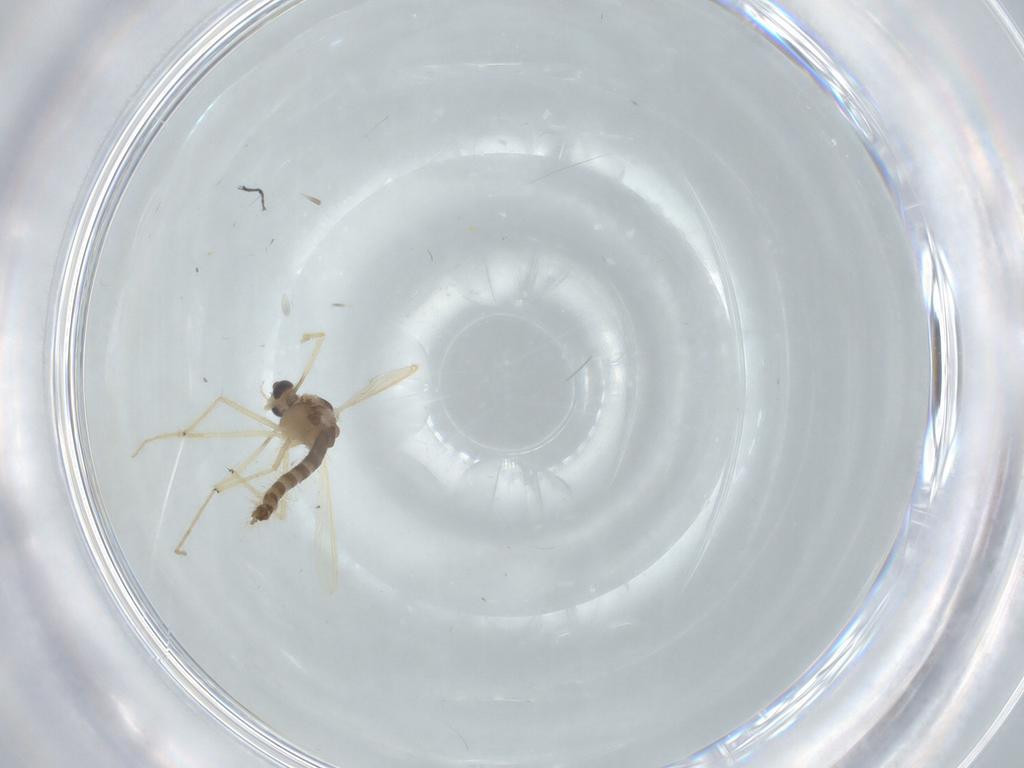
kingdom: Animalia
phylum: Arthropoda
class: Insecta
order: Diptera
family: Chironomidae
